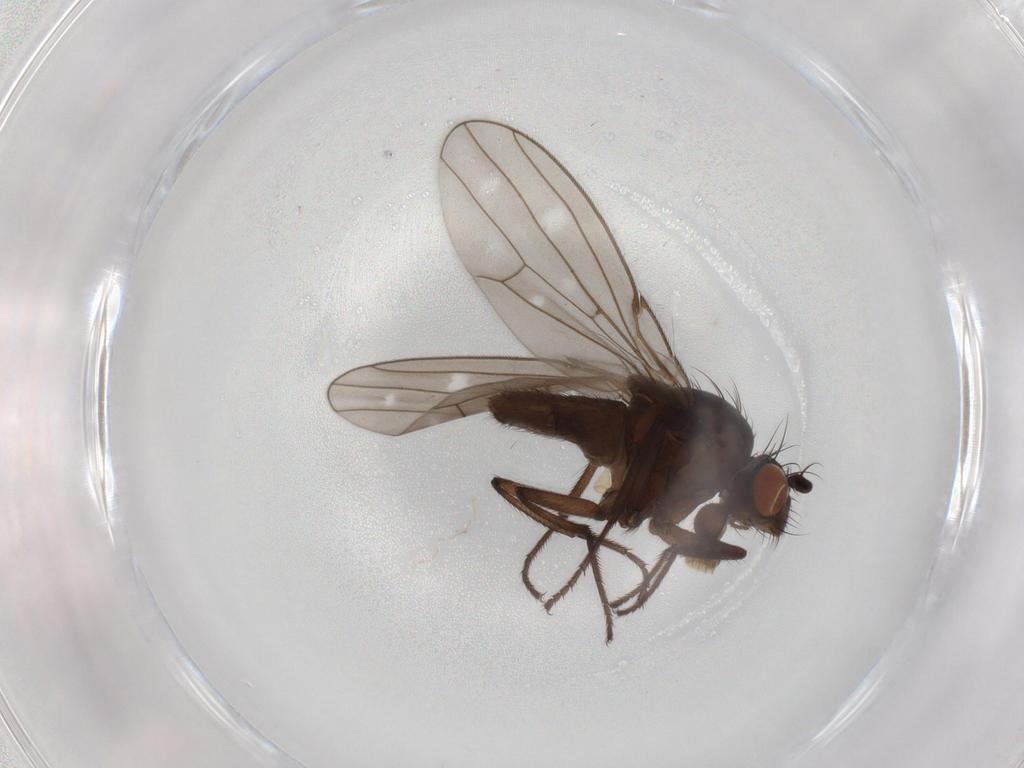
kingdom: Animalia
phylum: Arthropoda
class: Insecta
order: Diptera
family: Ephydridae
